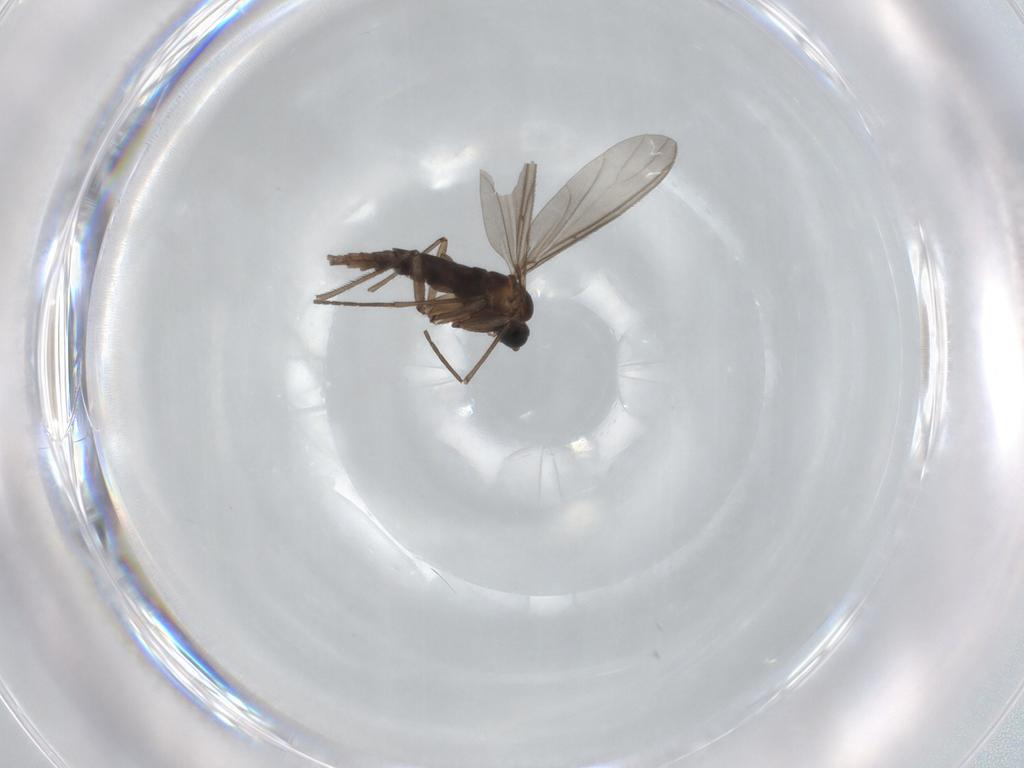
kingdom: Animalia
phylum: Arthropoda
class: Insecta
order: Diptera
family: Sciaridae
